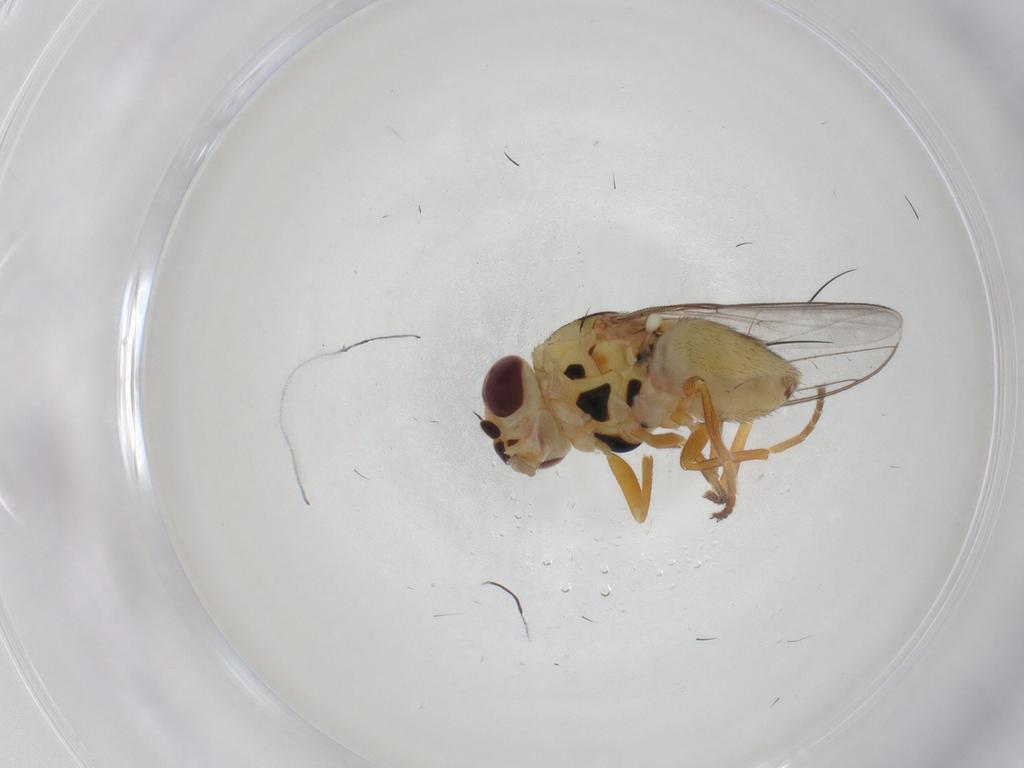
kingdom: Animalia
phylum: Arthropoda
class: Insecta
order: Diptera
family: Chloropidae
